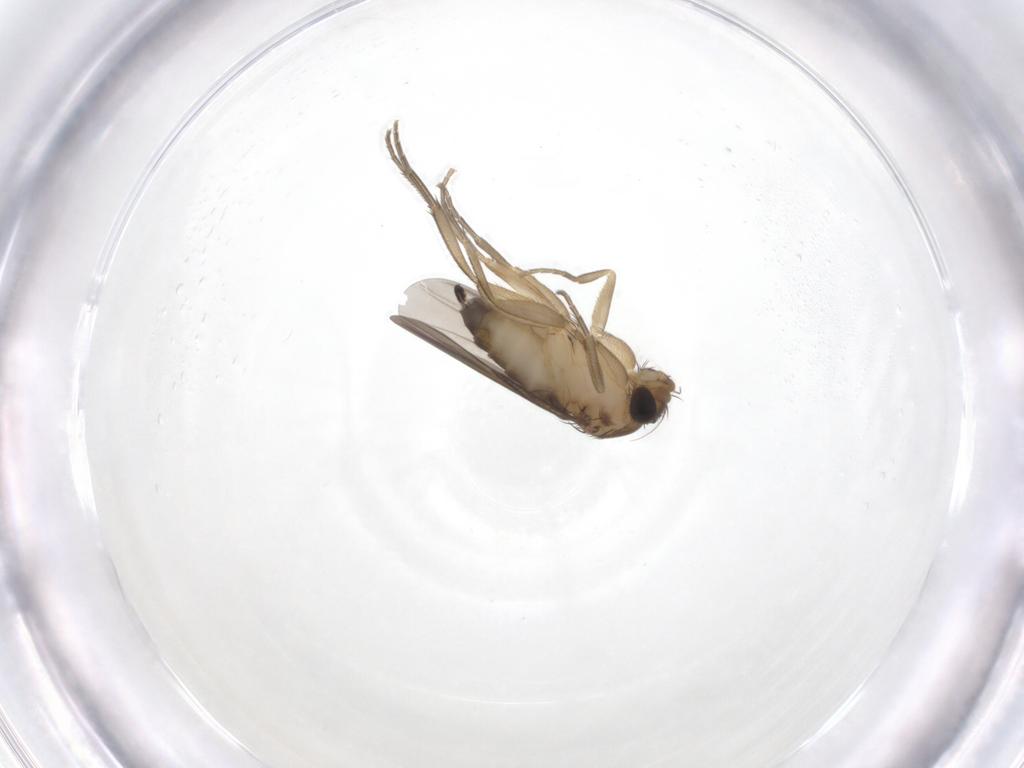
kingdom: Animalia
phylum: Arthropoda
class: Insecta
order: Diptera
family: Phoridae
